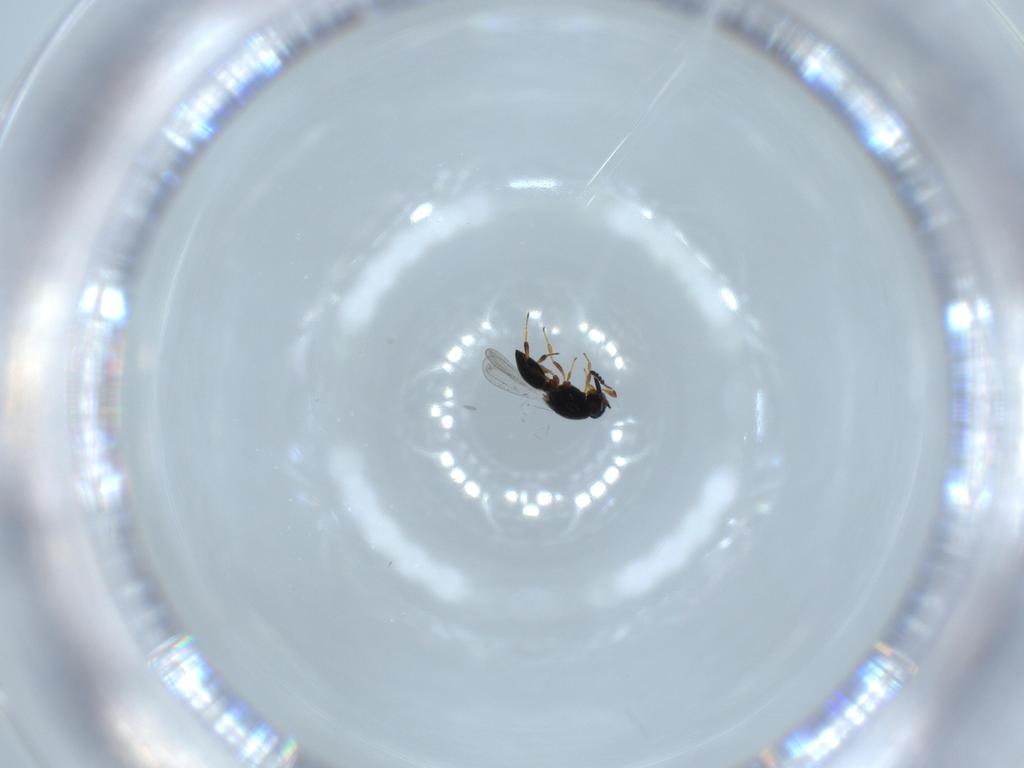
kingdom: Animalia
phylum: Arthropoda
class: Insecta
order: Hymenoptera
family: Platygastridae
